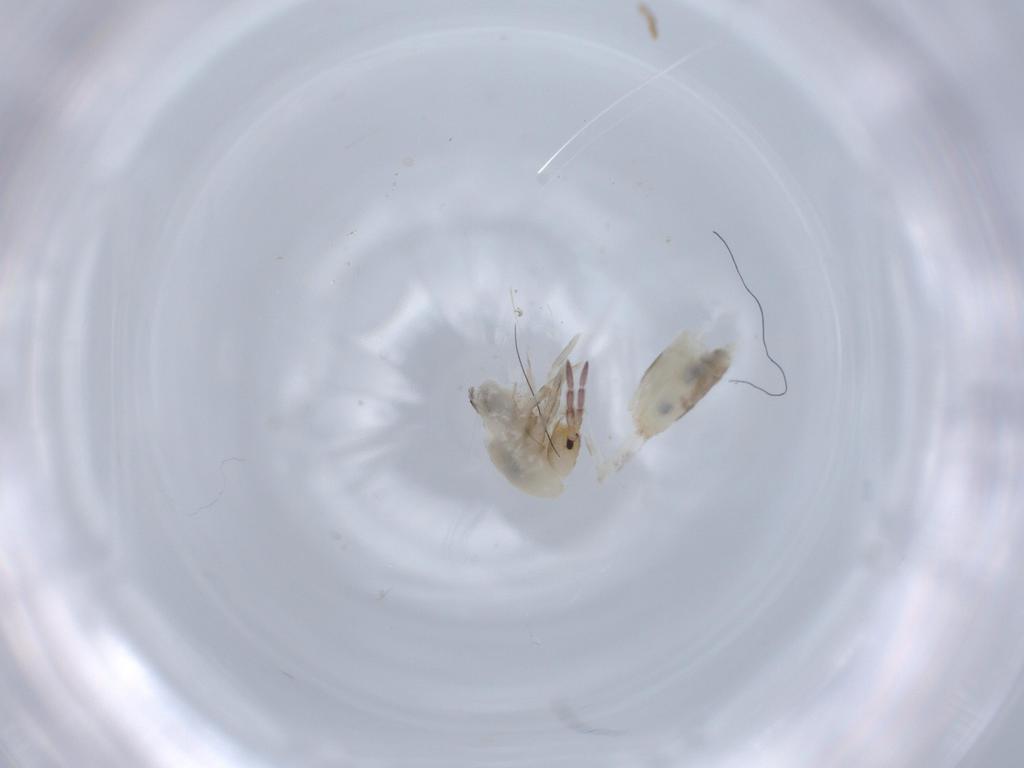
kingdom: Animalia
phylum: Arthropoda
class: Collembola
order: Entomobryomorpha
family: Entomobryidae
